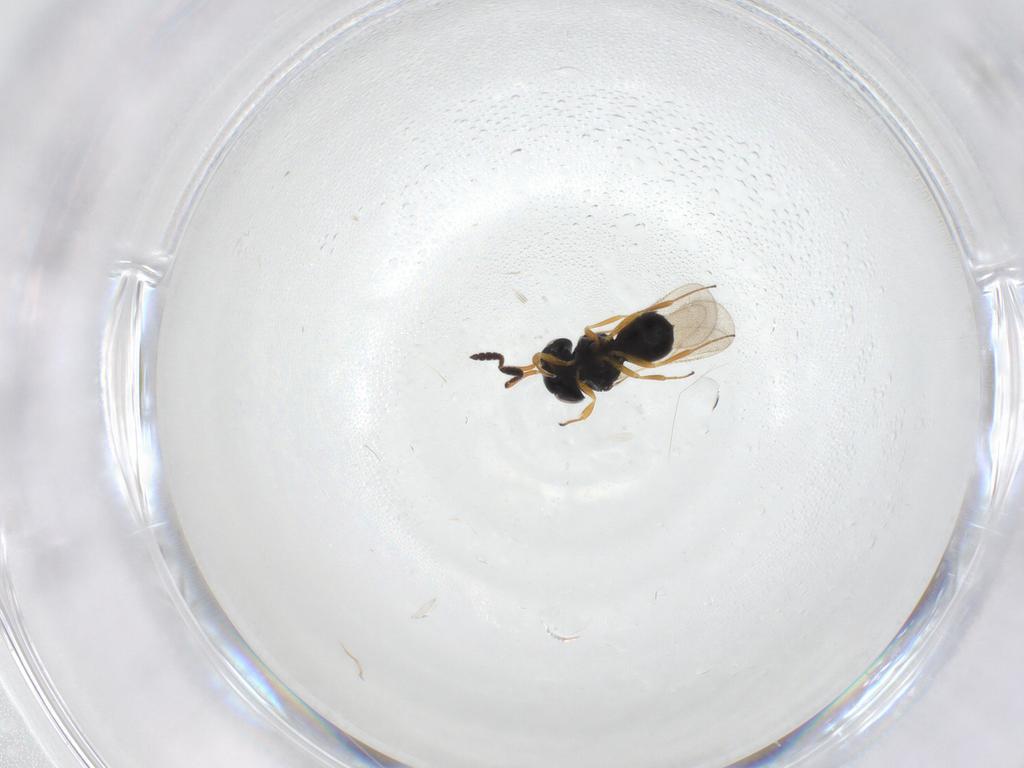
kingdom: Animalia
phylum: Arthropoda
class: Insecta
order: Hymenoptera
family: Scelionidae
